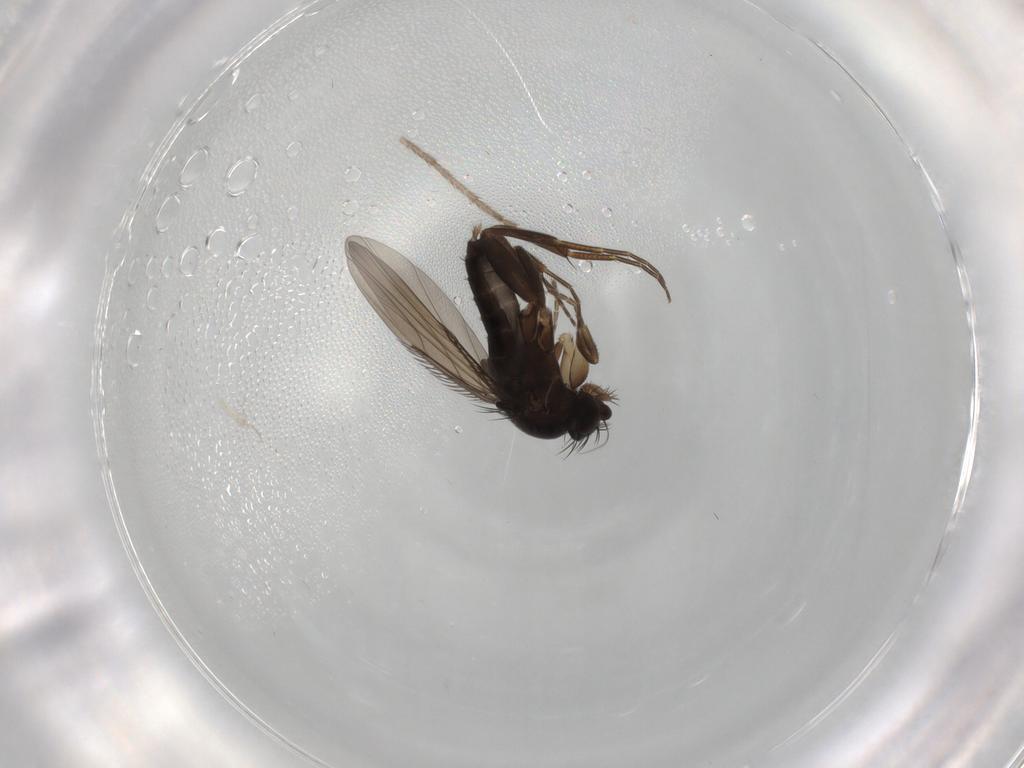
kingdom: Animalia
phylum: Arthropoda
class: Insecta
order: Diptera
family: Phoridae
